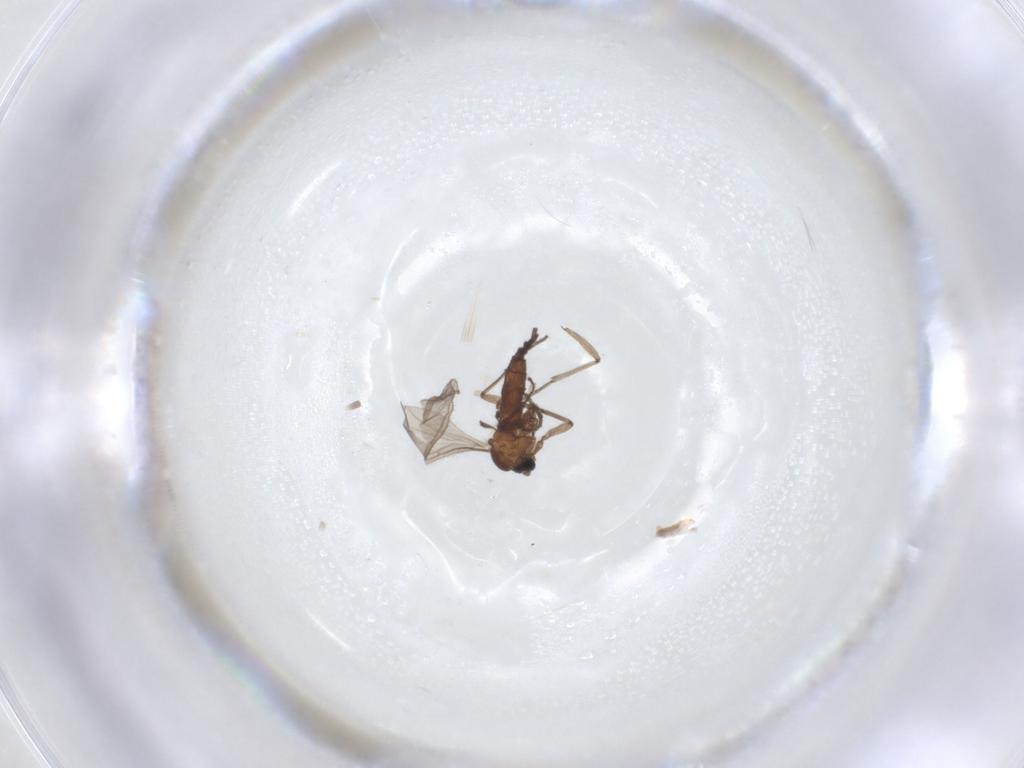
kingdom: Animalia
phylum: Arthropoda
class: Insecta
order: Diptera
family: Sciaridae
